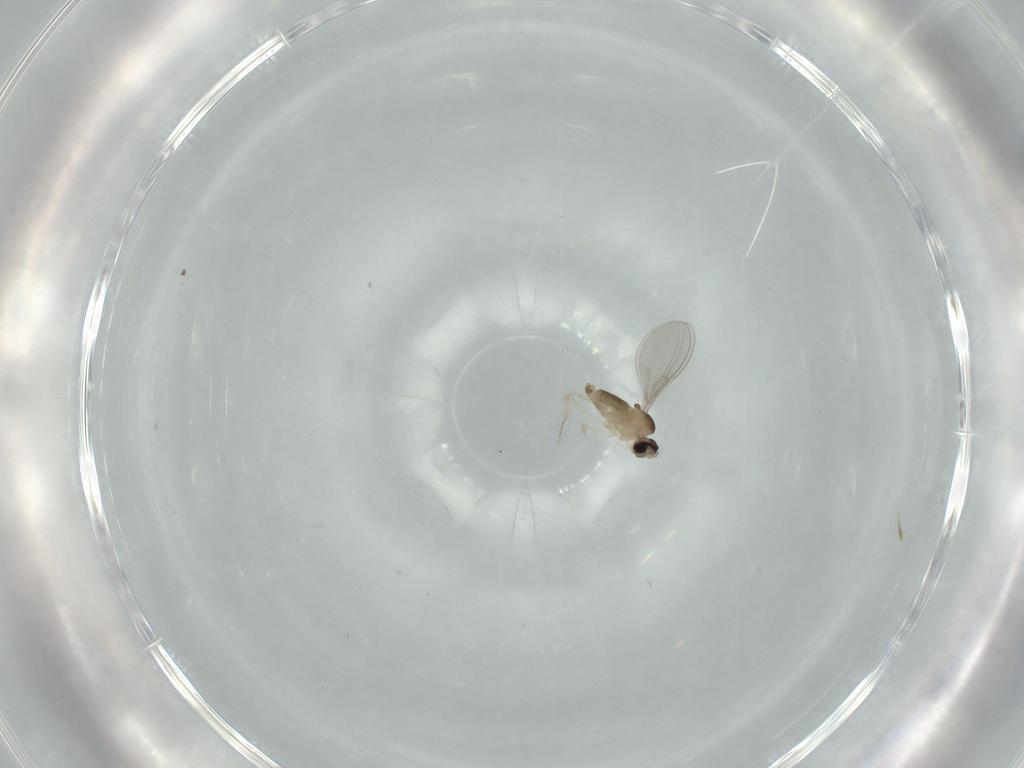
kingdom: Animalia
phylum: Arthropoda
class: Insecta
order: Diptera
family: Cecidomyiidae
